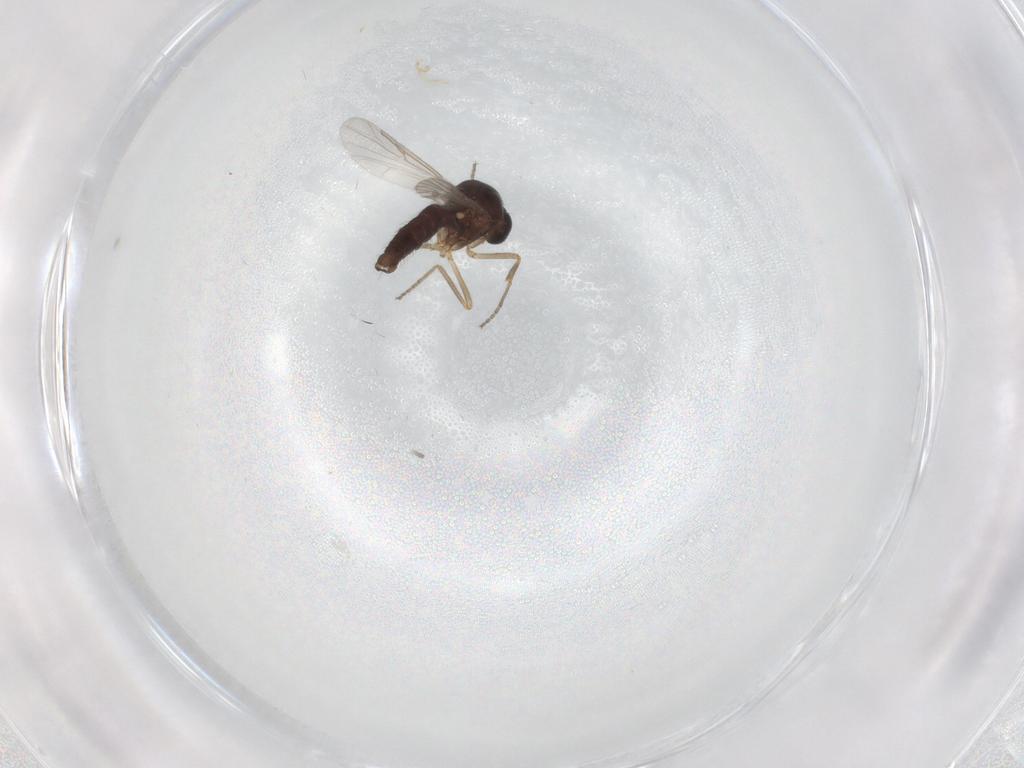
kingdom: Animalia
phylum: Arthropoda
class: Insecta
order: Diptera
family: Ceratopogonidae
